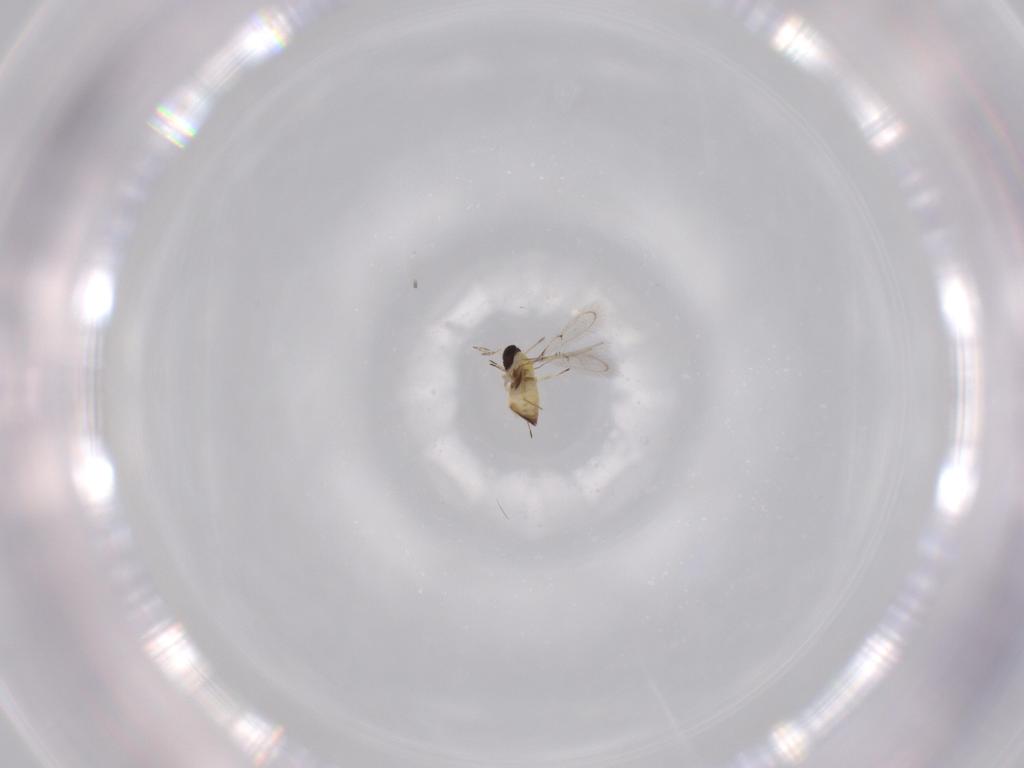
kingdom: Animalia
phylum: Arthropoda
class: Insecta
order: Hymenoptera
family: Trichogrammatidae
